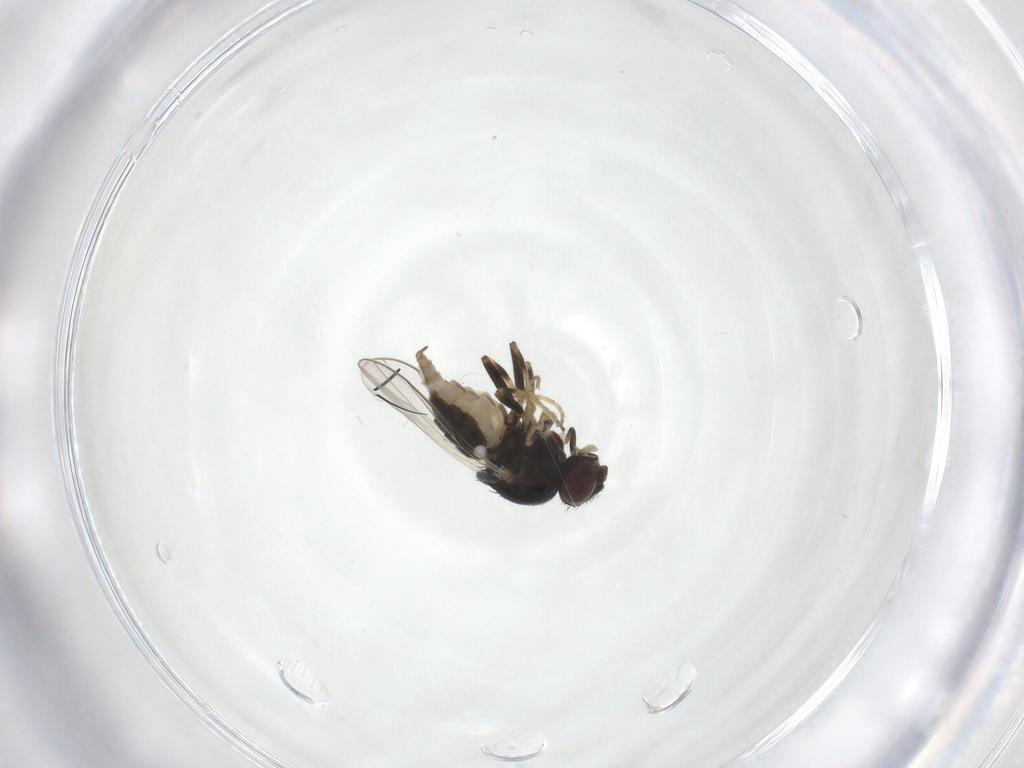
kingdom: Animalia
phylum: Arthropoda
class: Insecta
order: Diptera
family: Chloropidae
